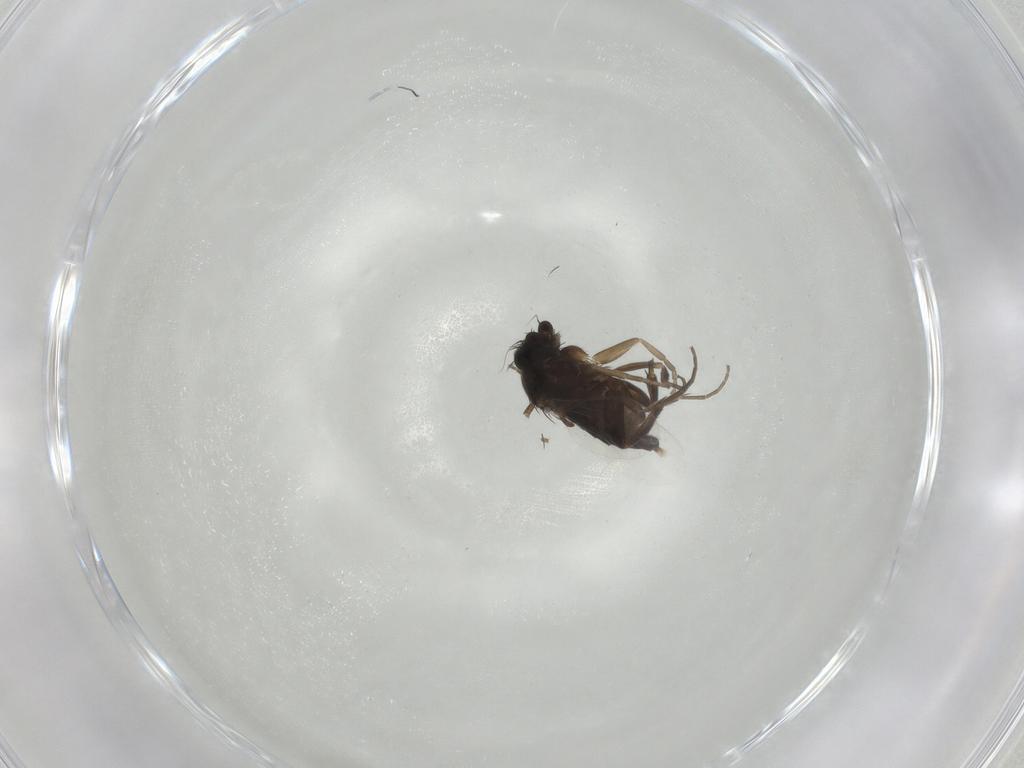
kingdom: Animalia
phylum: Arthropoda
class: Insecta
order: Diptera
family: Phoridae
